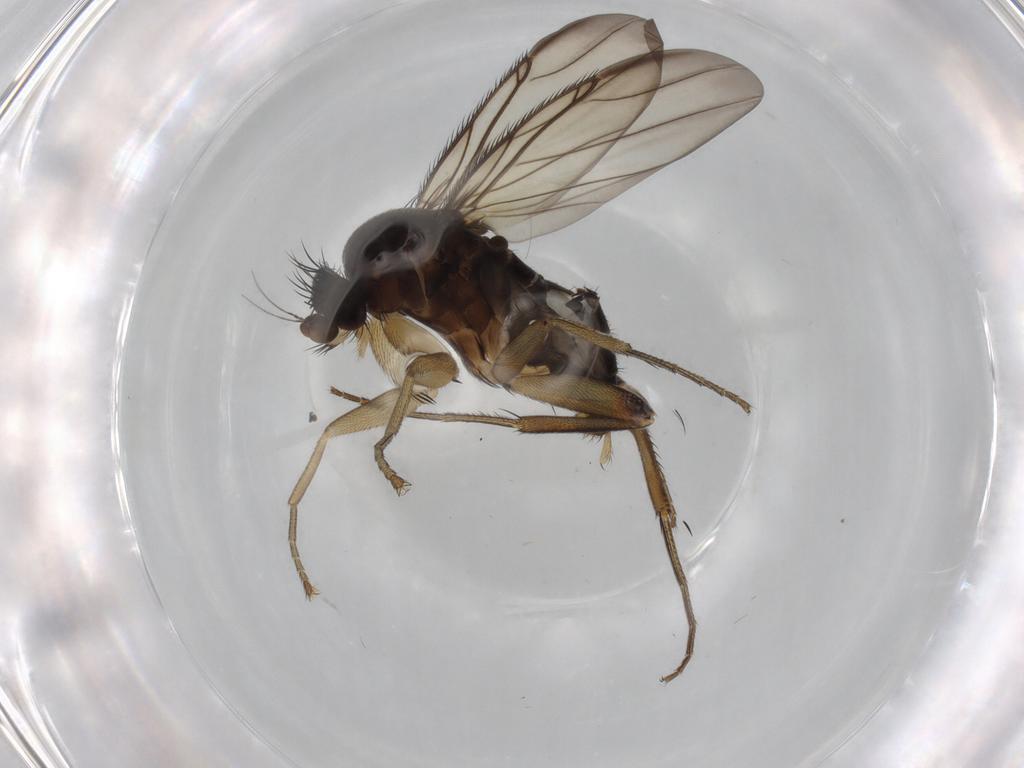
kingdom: Animalia
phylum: Arthropoda
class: Insecta
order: Diptera
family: Phoridae
